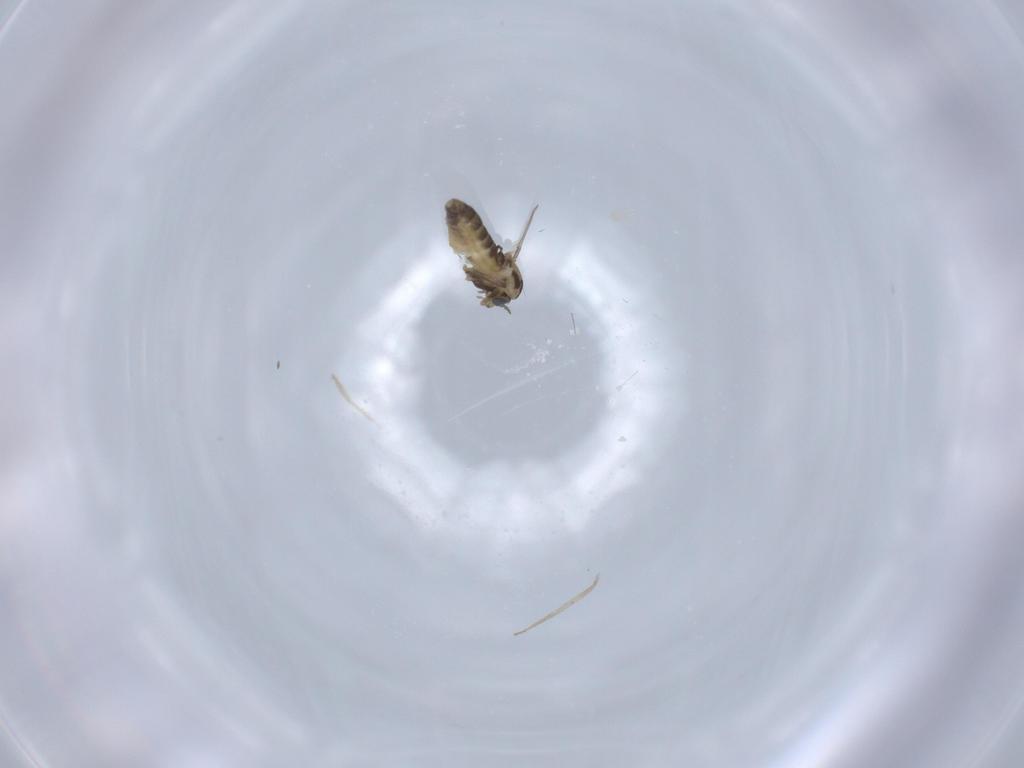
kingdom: Animalia
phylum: Arthropoda
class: Insecta
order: Diptera
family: Chironomidae
